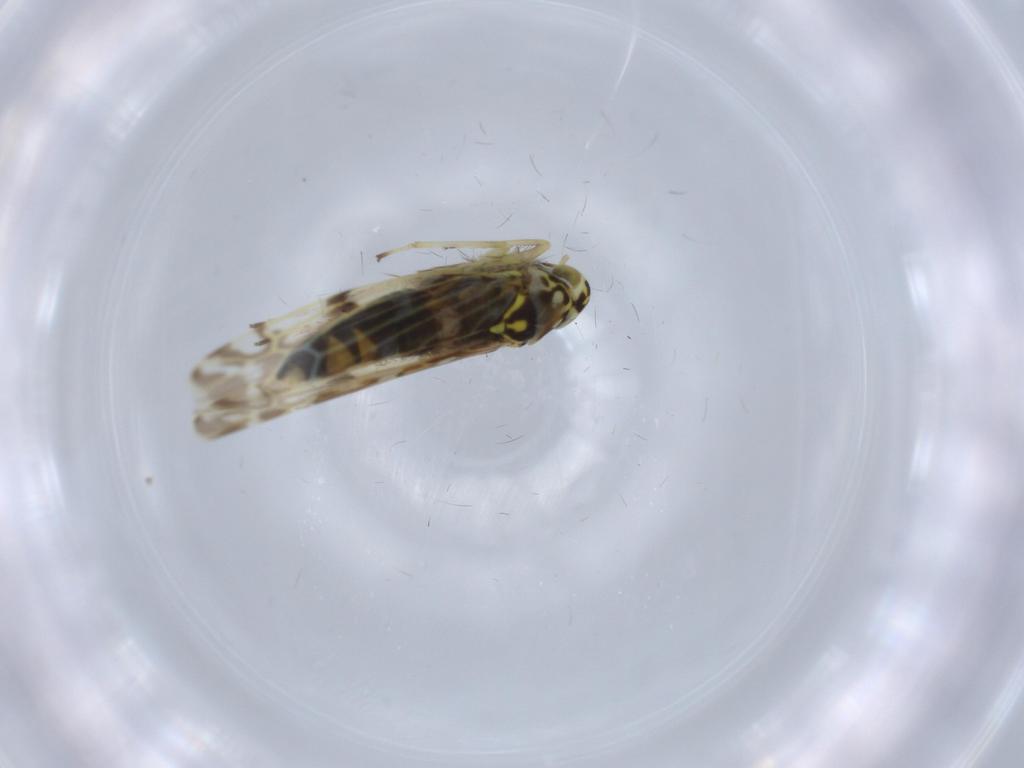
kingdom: Animalia
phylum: Arthropoda
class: Insecta
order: Hemiptera
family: Cicadellidae
